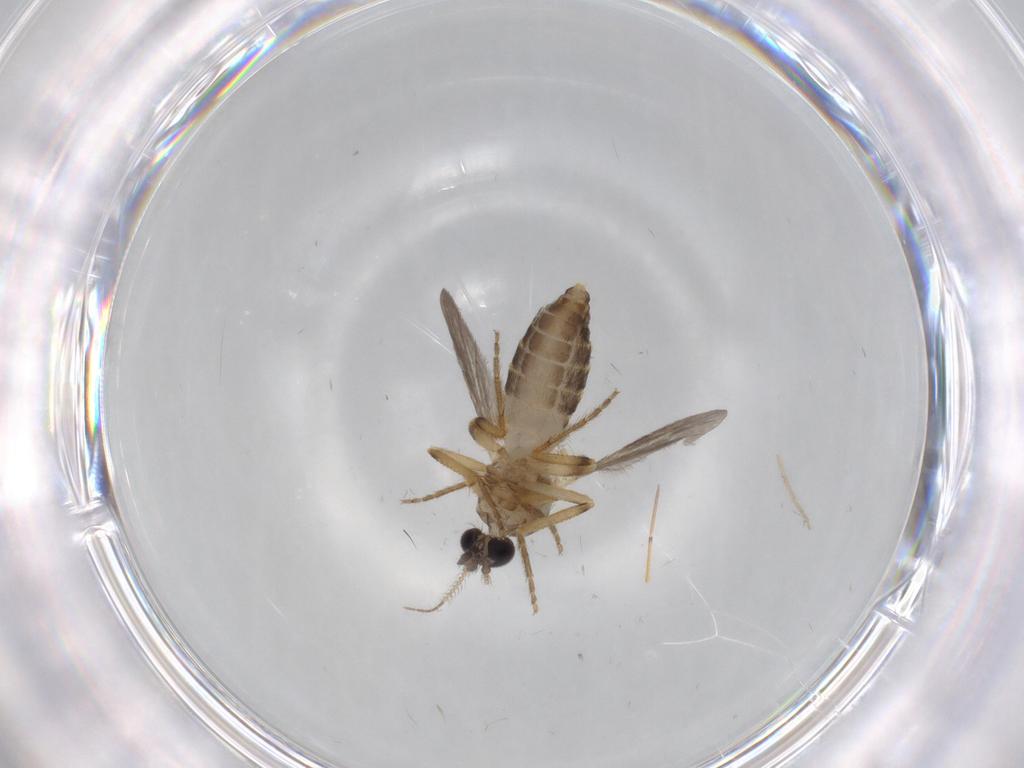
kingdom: Animalia
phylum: Arthropoda
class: Insecta
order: Diptera
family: Ceratopogonidae
